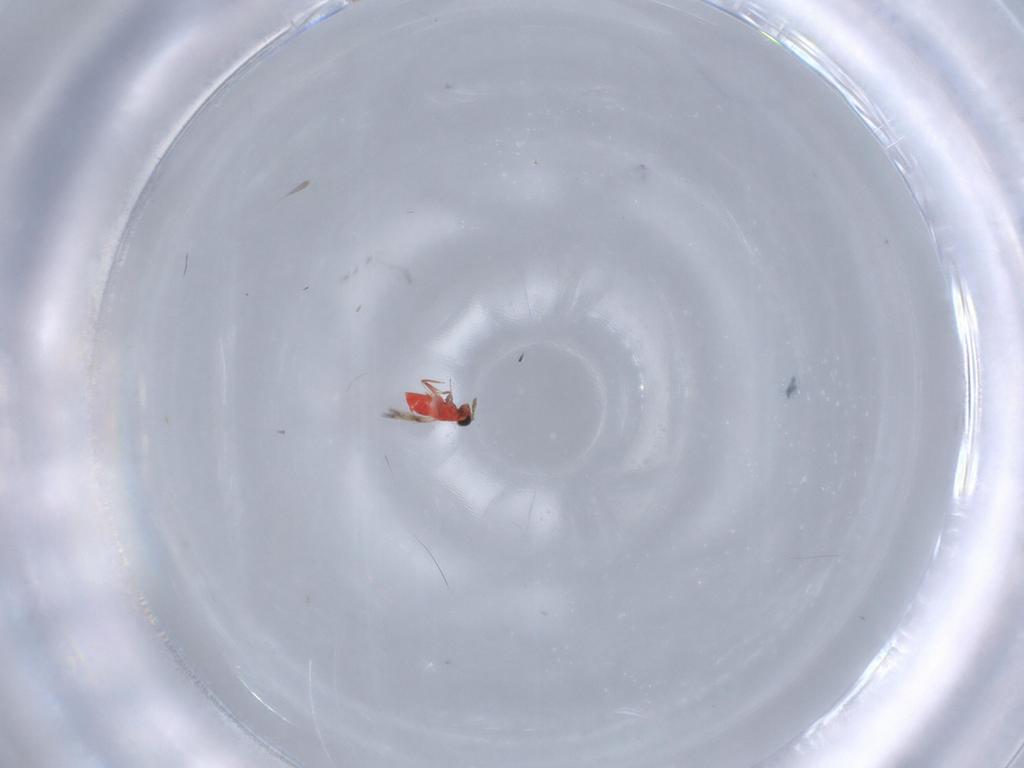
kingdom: Animalia
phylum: Arthropoda
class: Insecta
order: Hymenoptera
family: Trichogrammatidae
